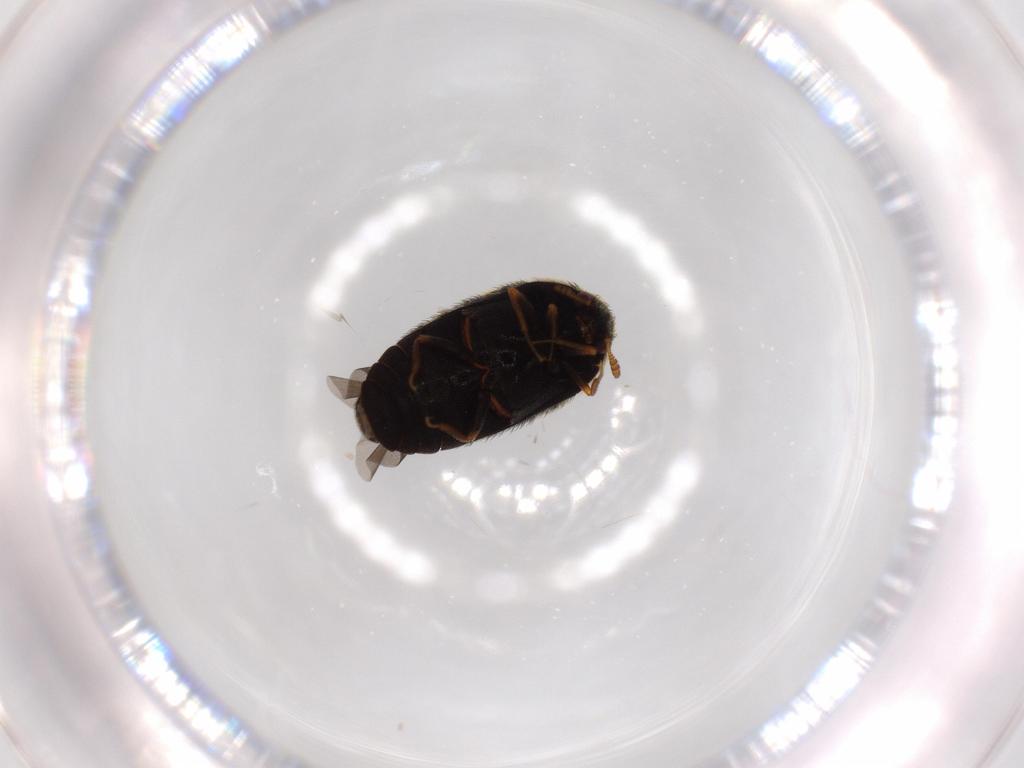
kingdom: Animalia
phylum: Arthropoda
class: Insecta
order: Coleoptera
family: Dermestidae
